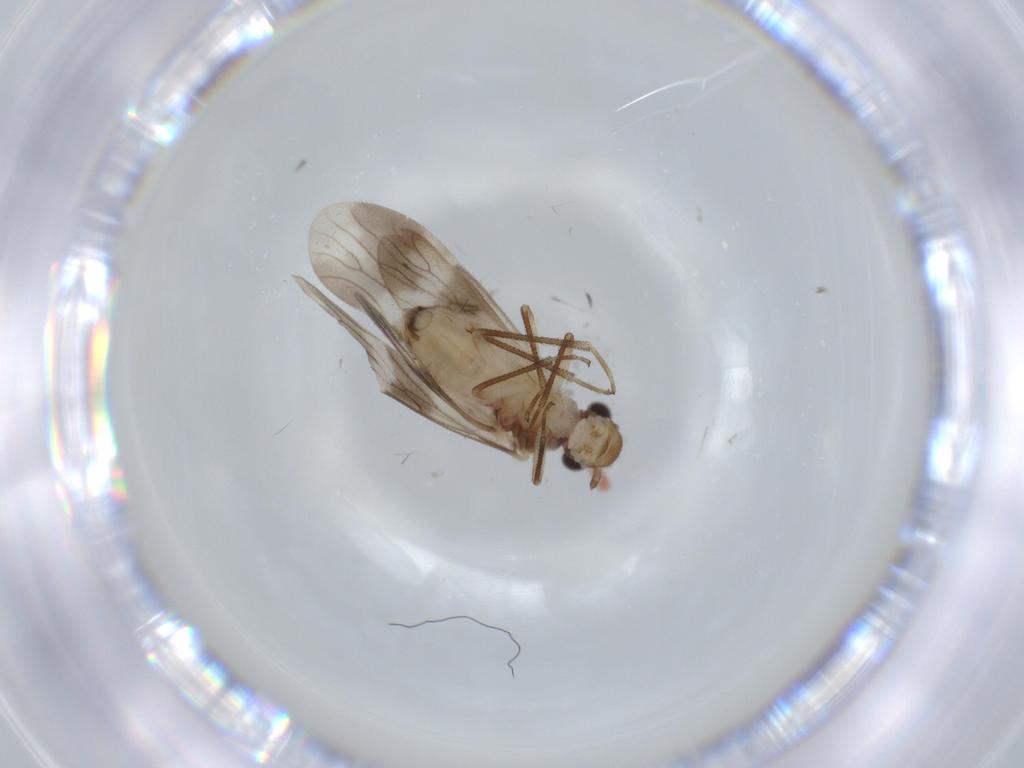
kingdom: Animalia
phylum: Arthropoda
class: Insecta
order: Psocodea
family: Amphipsocidae
